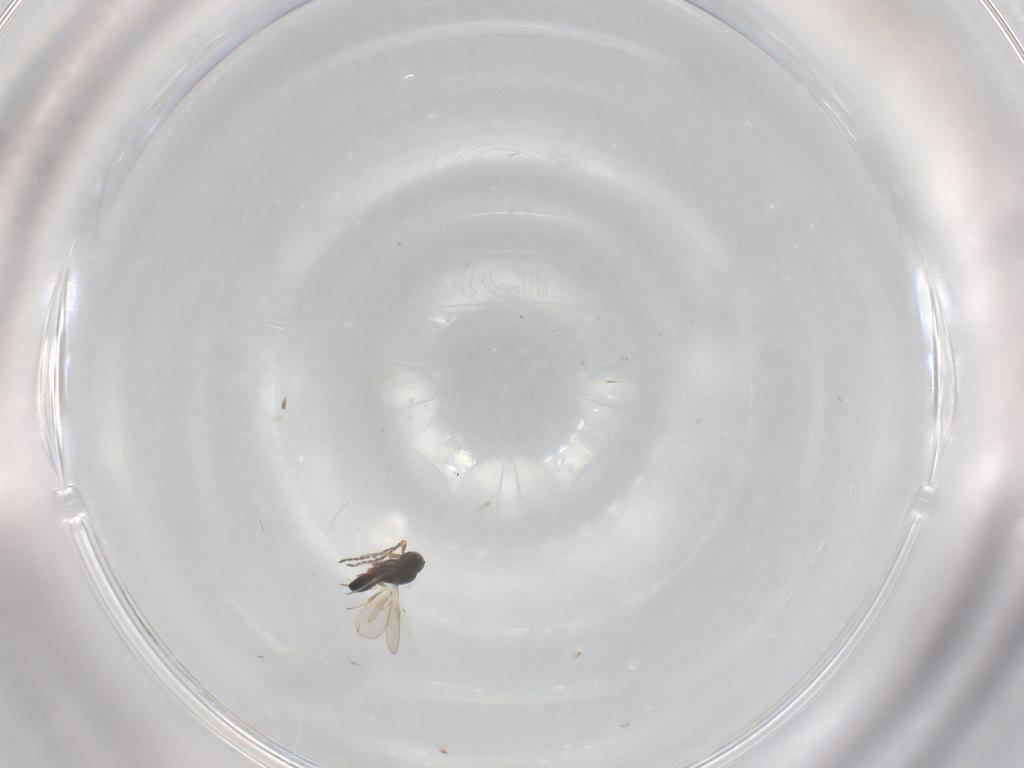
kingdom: Animalia
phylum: Arthropoda
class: Insecta
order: Hymenoptera
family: Scelionidae
